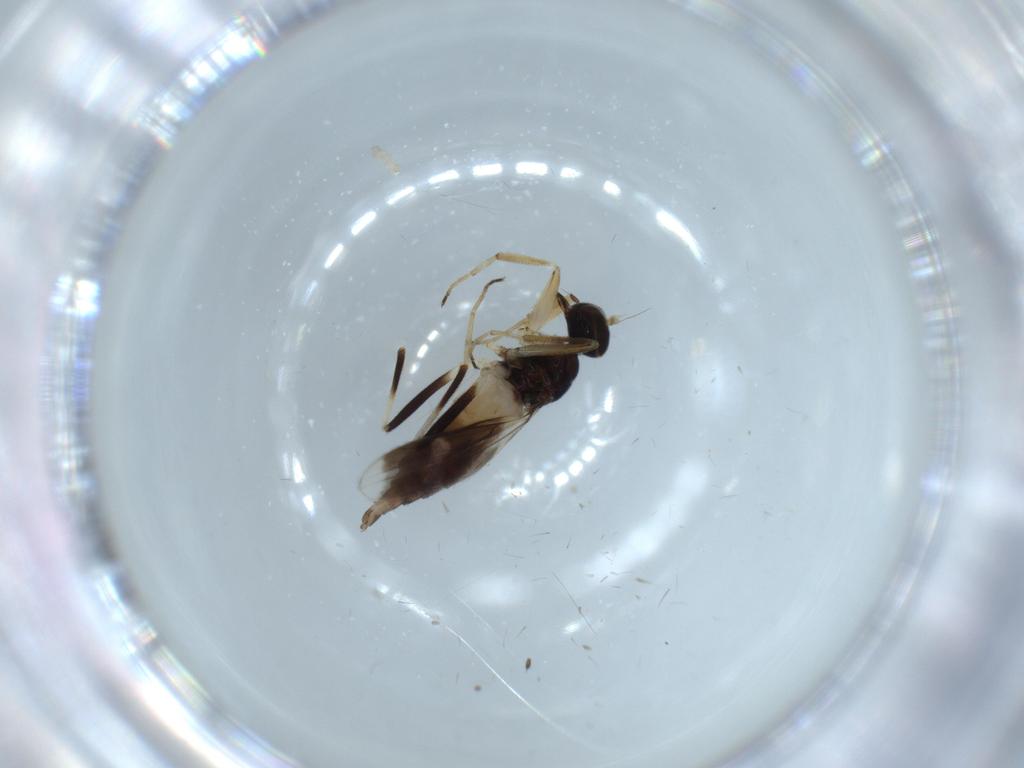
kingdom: Animalia
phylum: Arthropoda
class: Insecta
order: Diptera
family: Hybotidae
